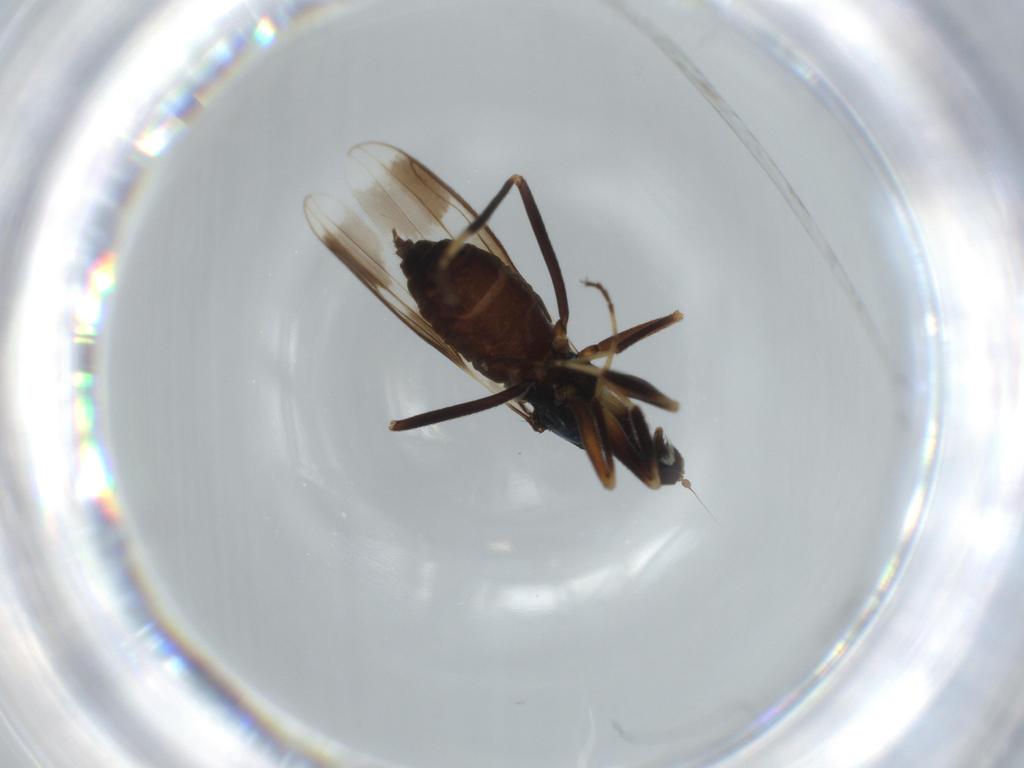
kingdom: Animalia
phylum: Arthropoda
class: Insecta
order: Diptera
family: Hybotidae
